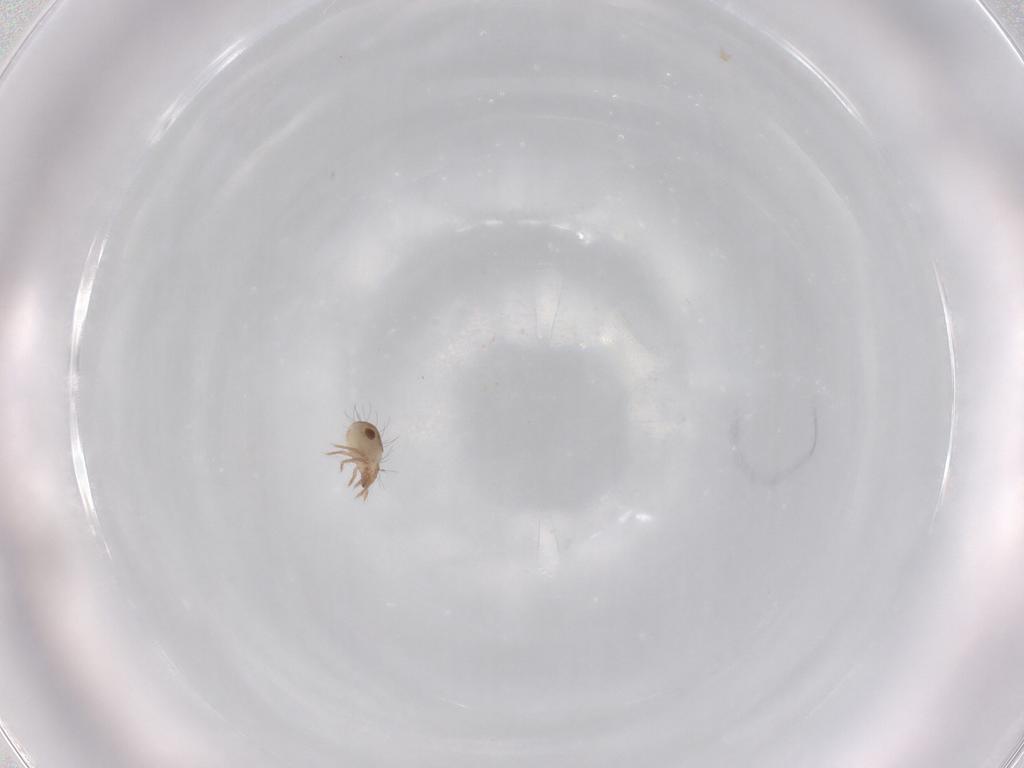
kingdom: Animalia
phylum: Arthropoda
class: Arachnida
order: Sarcoptiformes
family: Humerobatidae
